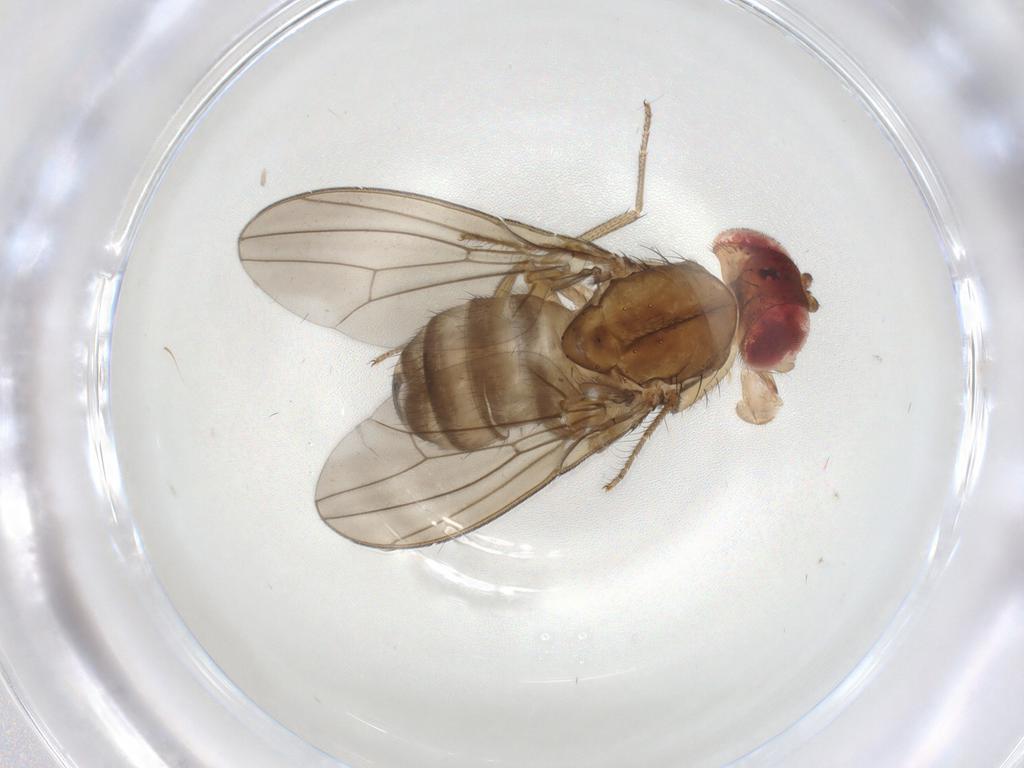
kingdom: Animalia
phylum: Arthropoda
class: Insecta
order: Diptera
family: Drosophilidae
